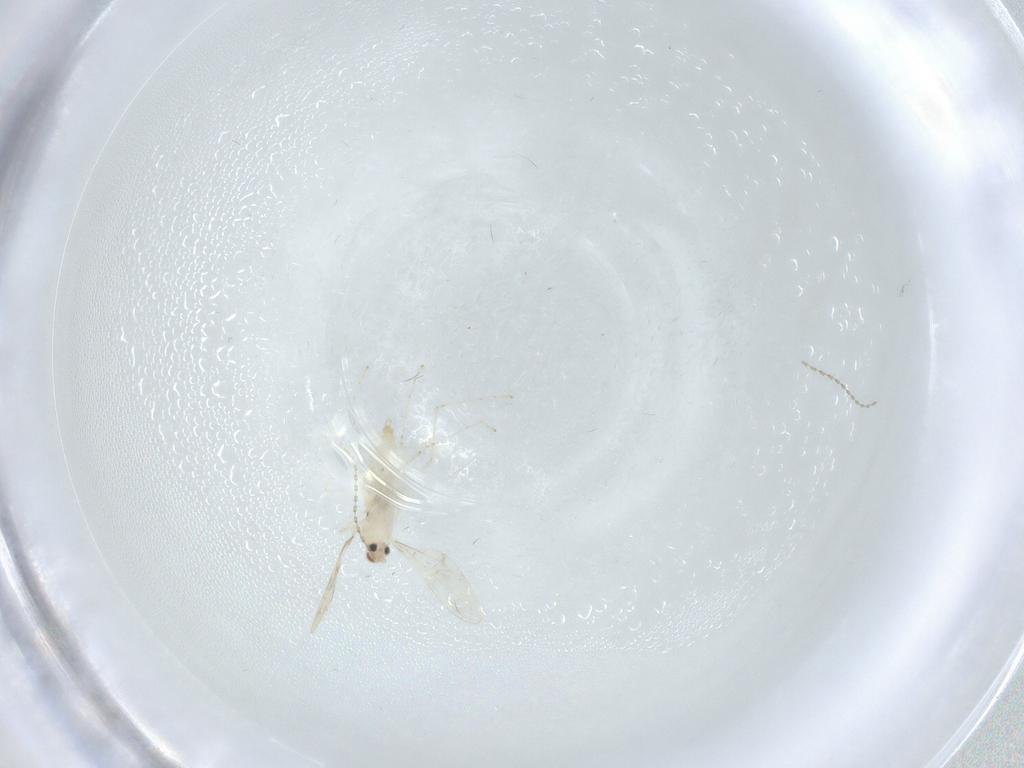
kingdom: Animalia
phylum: Arthropoda
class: Insecta
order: Diptera
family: Cecidomyiidae
